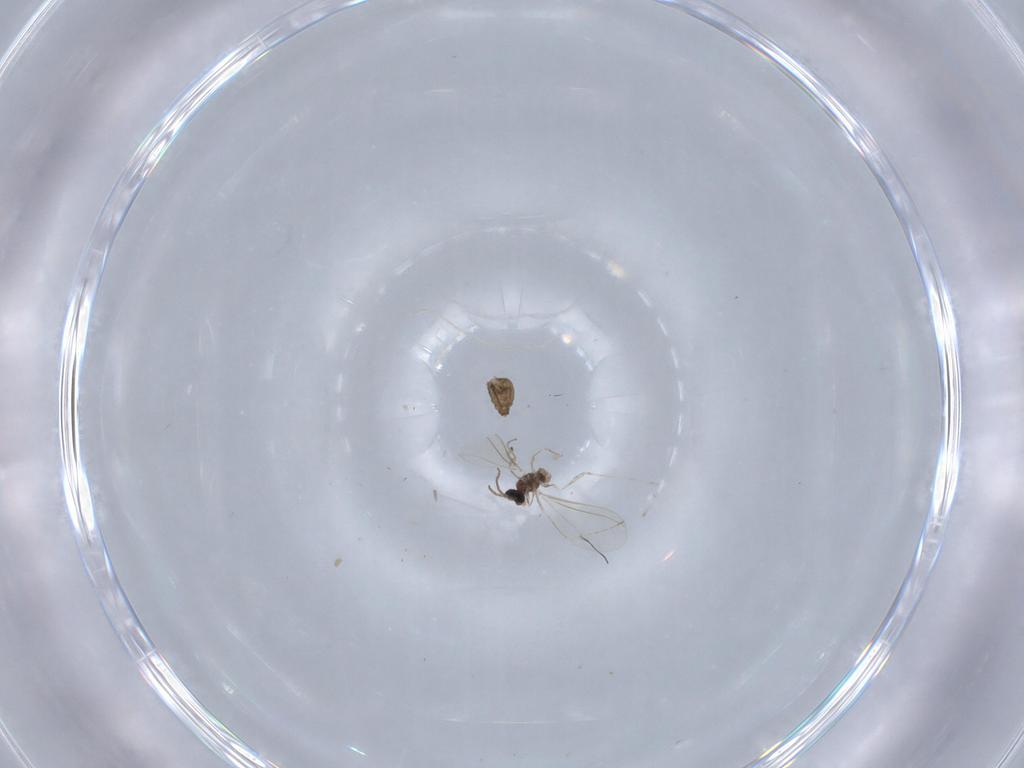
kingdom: Animalia
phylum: Arthropoda
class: Insecta
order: Diptera
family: Cecidomyiidae
